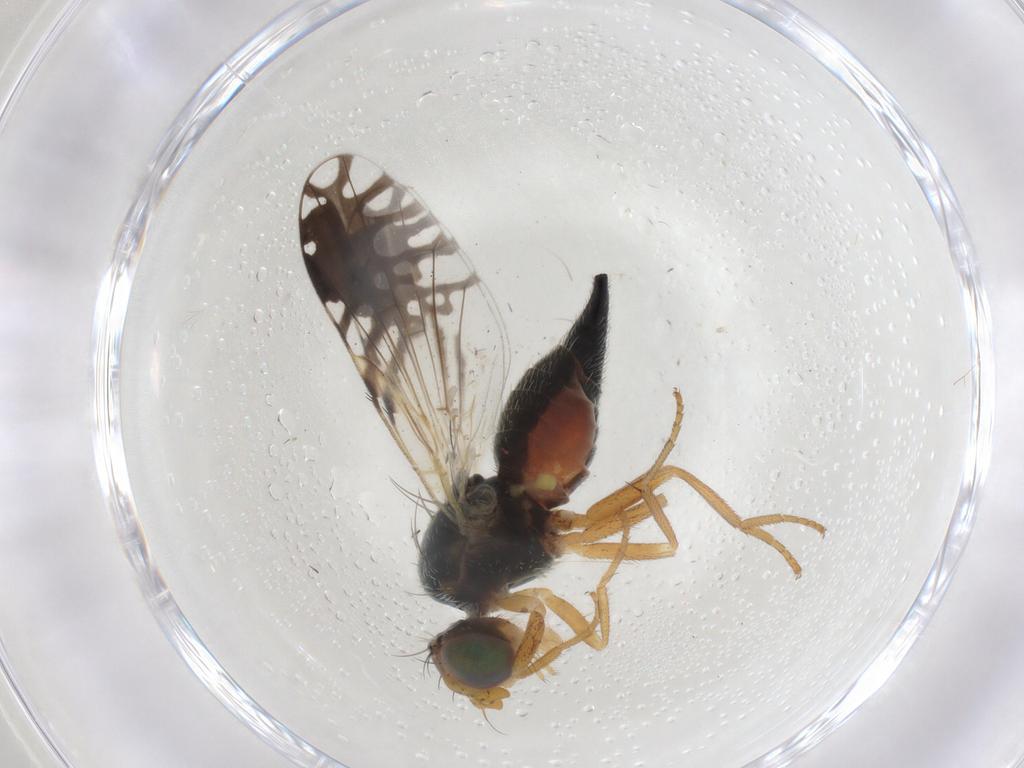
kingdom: Animalia
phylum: Arthropoda
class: Insecta
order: Diptera
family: Tephritidae
